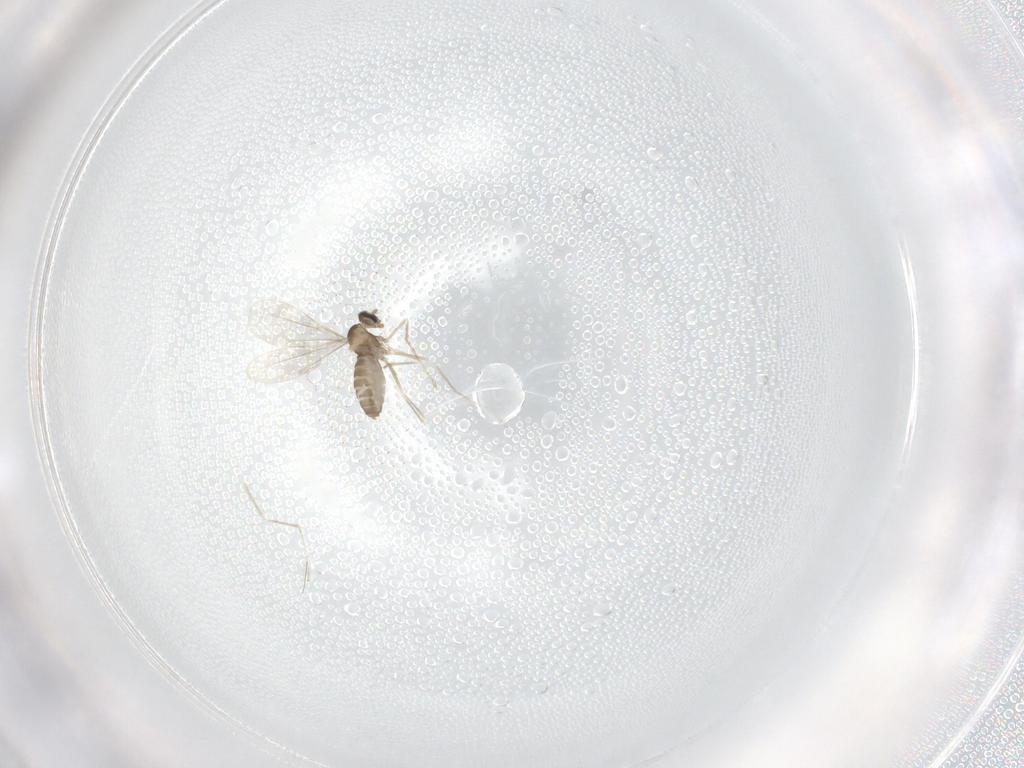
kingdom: Animalia
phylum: Arthropoda
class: Insecta
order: Diptera
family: Cecidomyiidae
